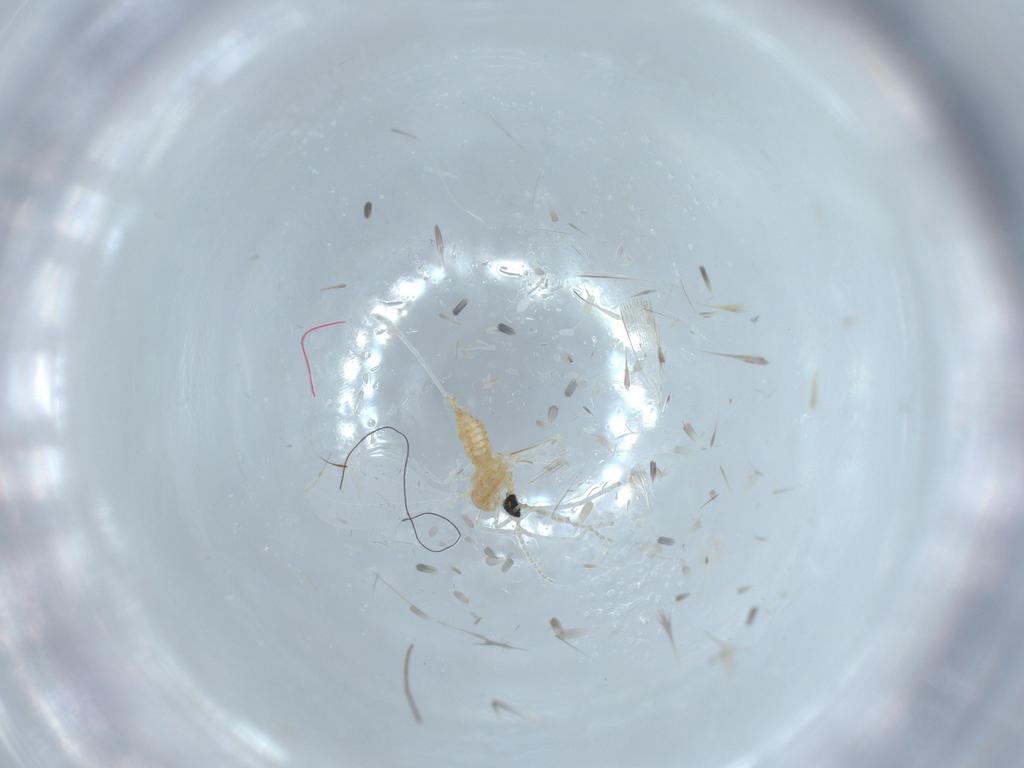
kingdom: Animalia
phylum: Arthropoda
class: Insecta
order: Diptera
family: Cecidomyiidae
